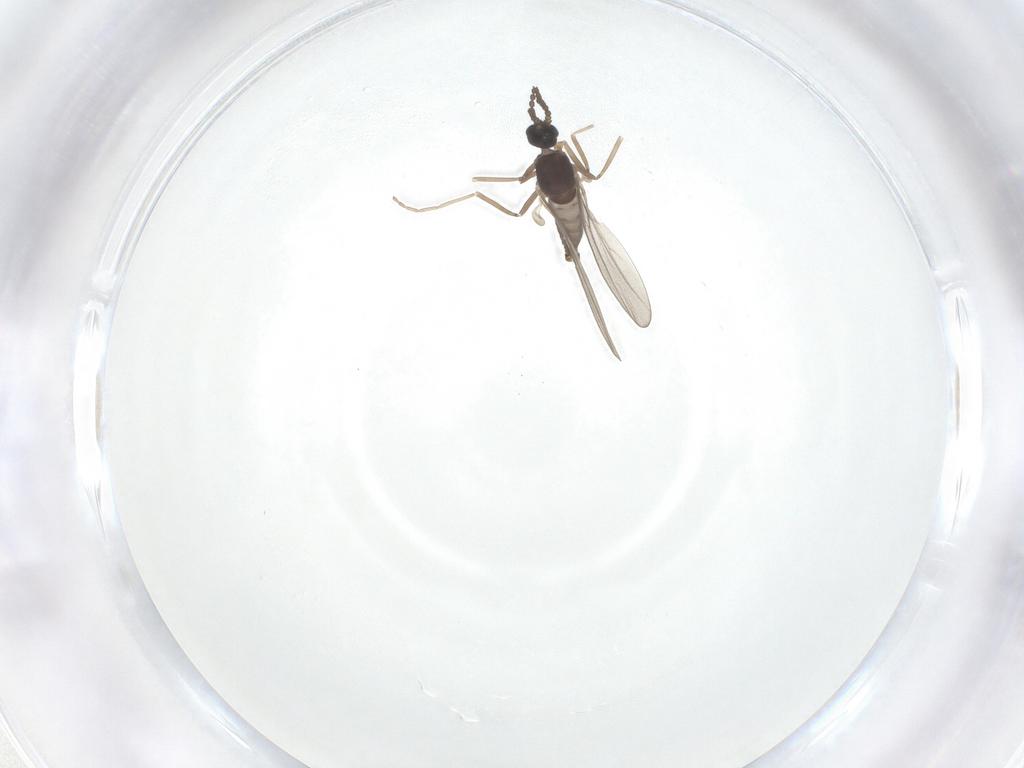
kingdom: Animalia
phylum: Arthropoda
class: Insecta
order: Diptera
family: Cecidomyiidae
